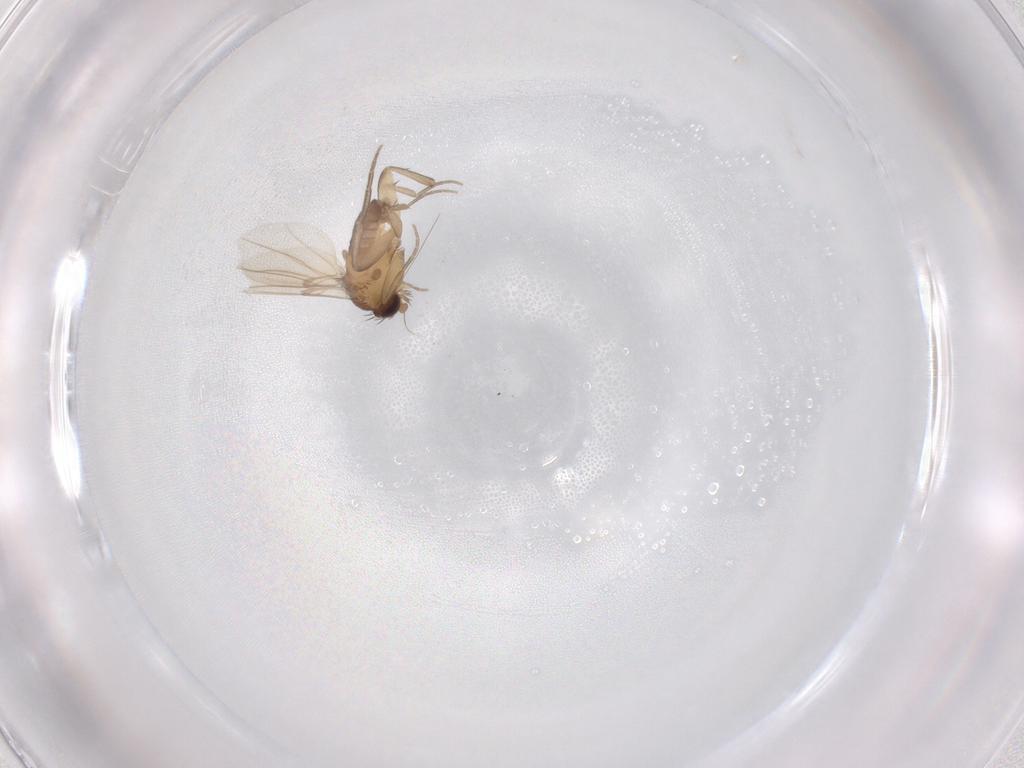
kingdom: Animalia
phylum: Arthropoda
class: Insecta
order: Diptera
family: Phoridae
